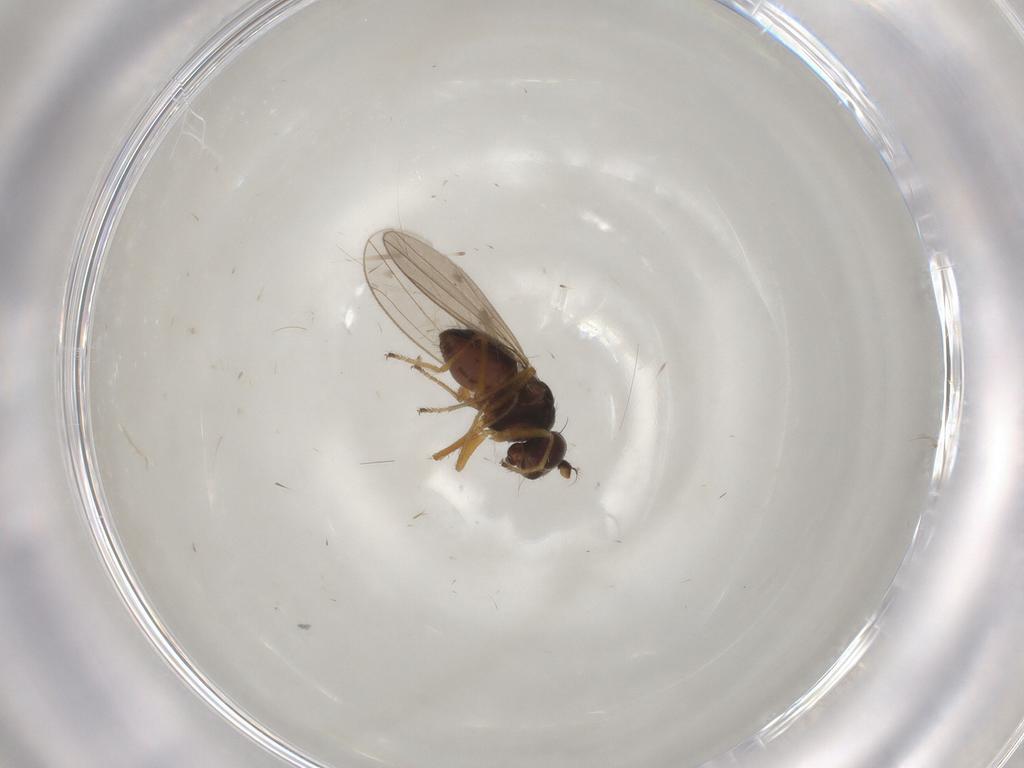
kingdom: Animalia
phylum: Arthropoda
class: Insecta
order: Diptera
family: Ephydridae
